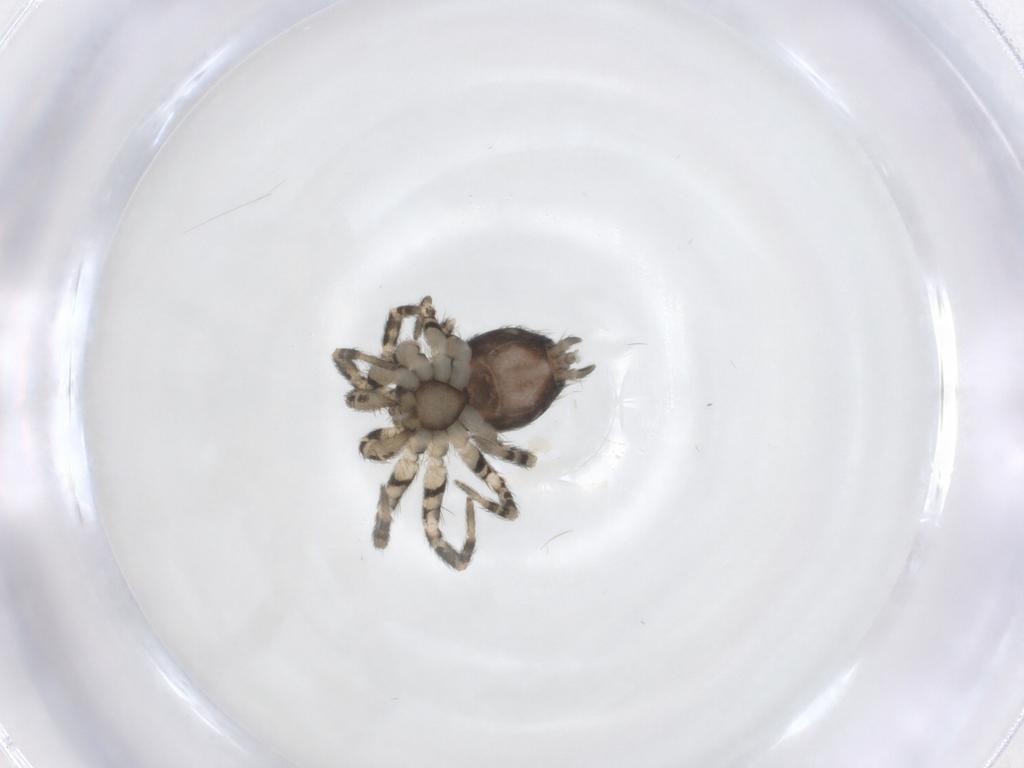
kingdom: Animalia
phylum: Arthropoda
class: Arachnida
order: Araneae
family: Oecobiidae
